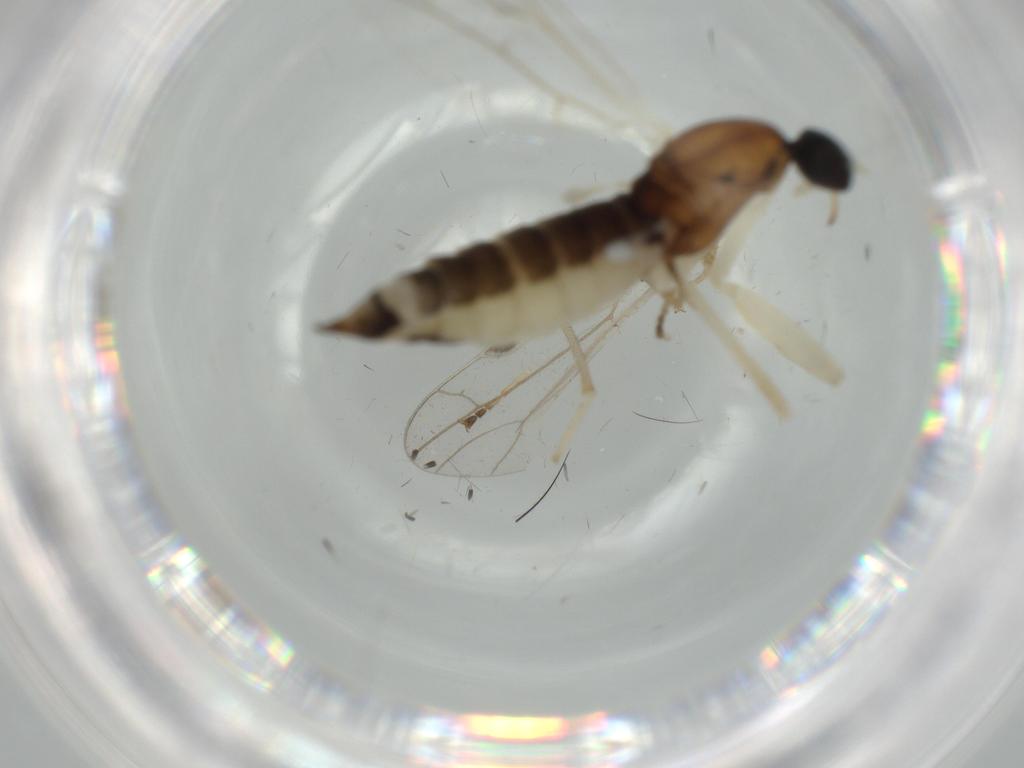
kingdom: Animalia
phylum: Arthropoda
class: Insecta
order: Diptera
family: Empididae
